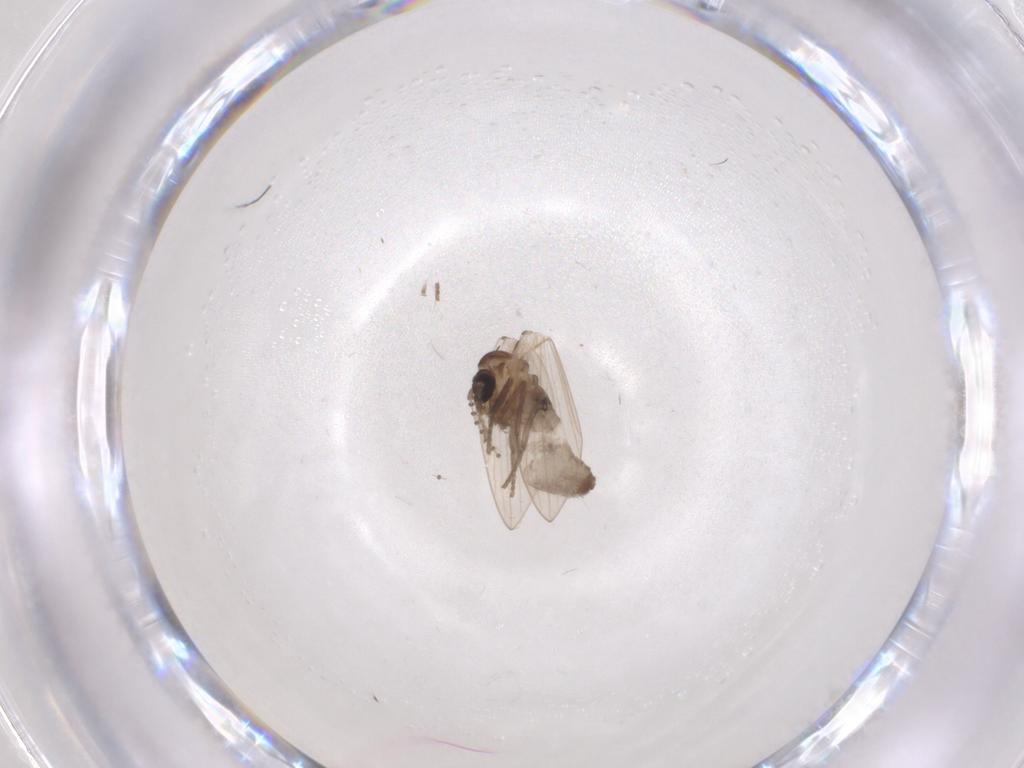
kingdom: Animalia
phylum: Arthropoda
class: Insecta
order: Diptera
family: Psychodidae
